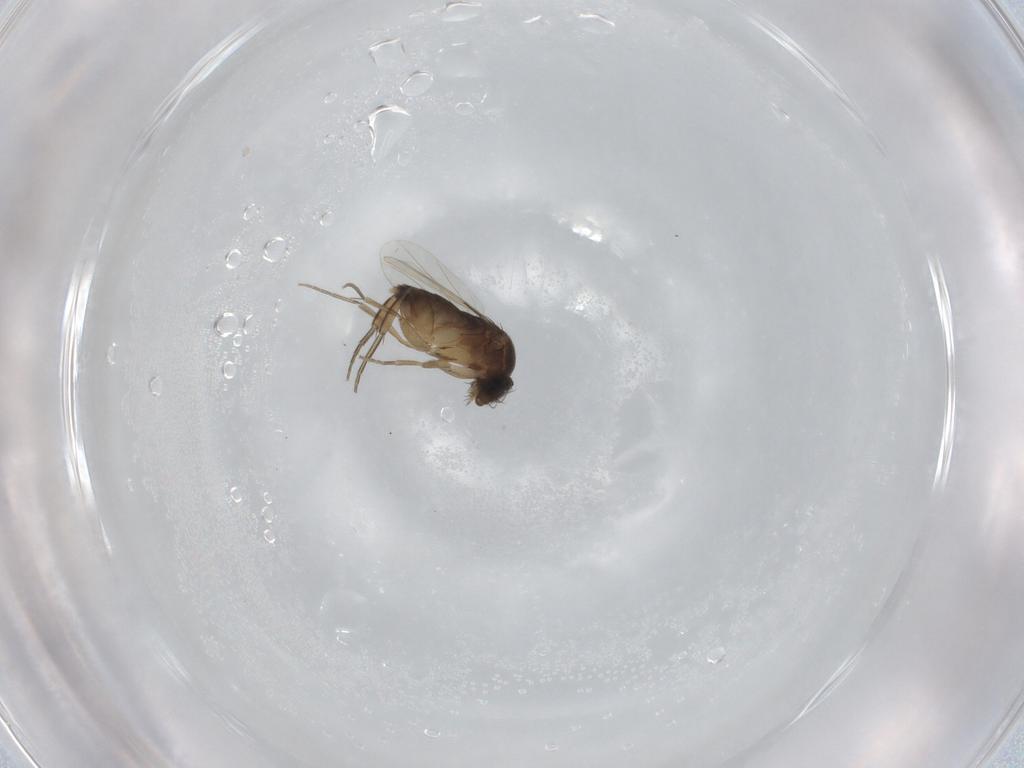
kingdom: Animalia
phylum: Arthropoda
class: Insecta
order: Diptera
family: Psychodidae
